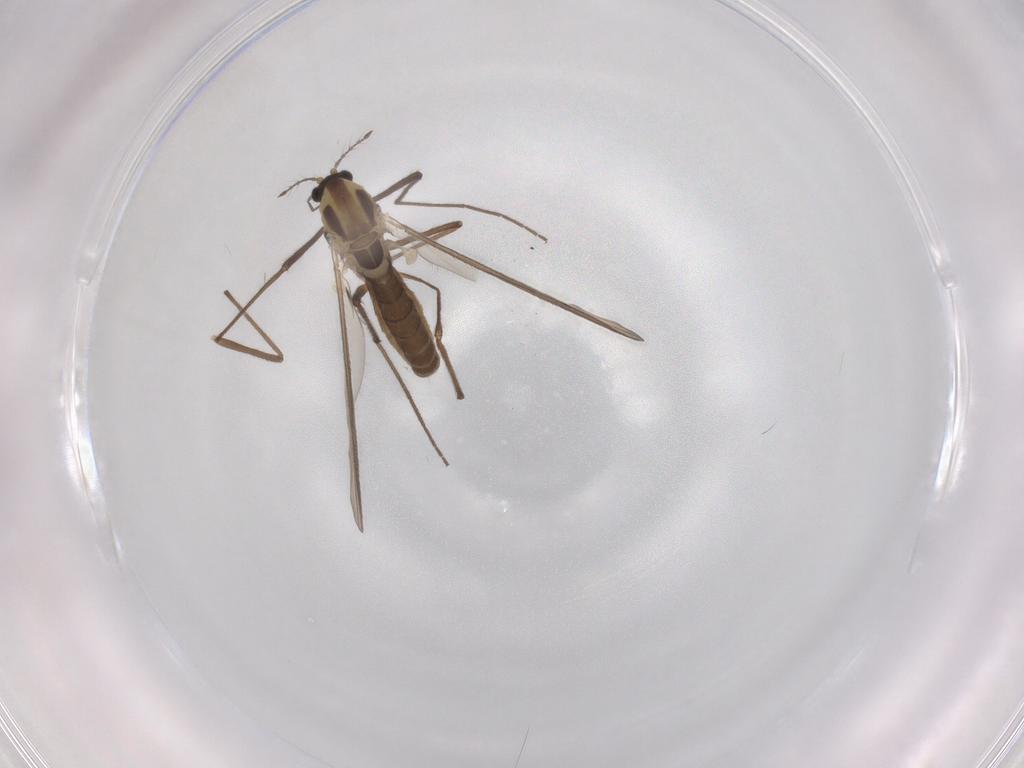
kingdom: Animalia
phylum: Arthropoda
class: Insecta
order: Diptera
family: Chironomidae
